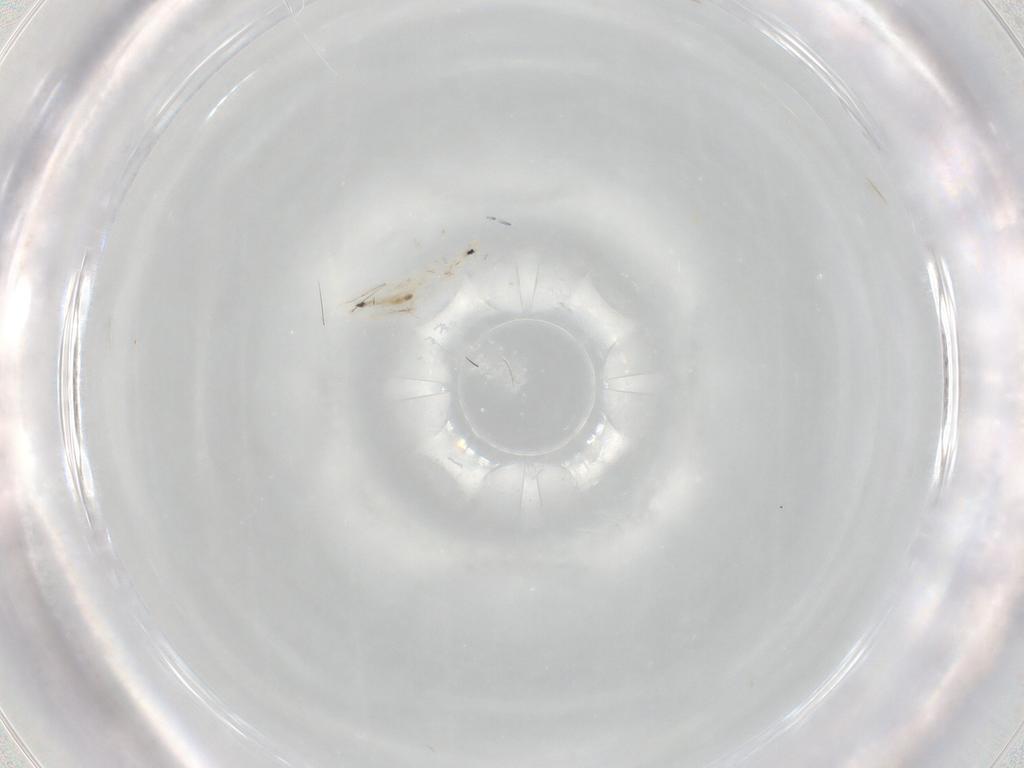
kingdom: Animalia
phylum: Arthropoda
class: Collembola
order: Entomobryomorpha
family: Entomobryidae
